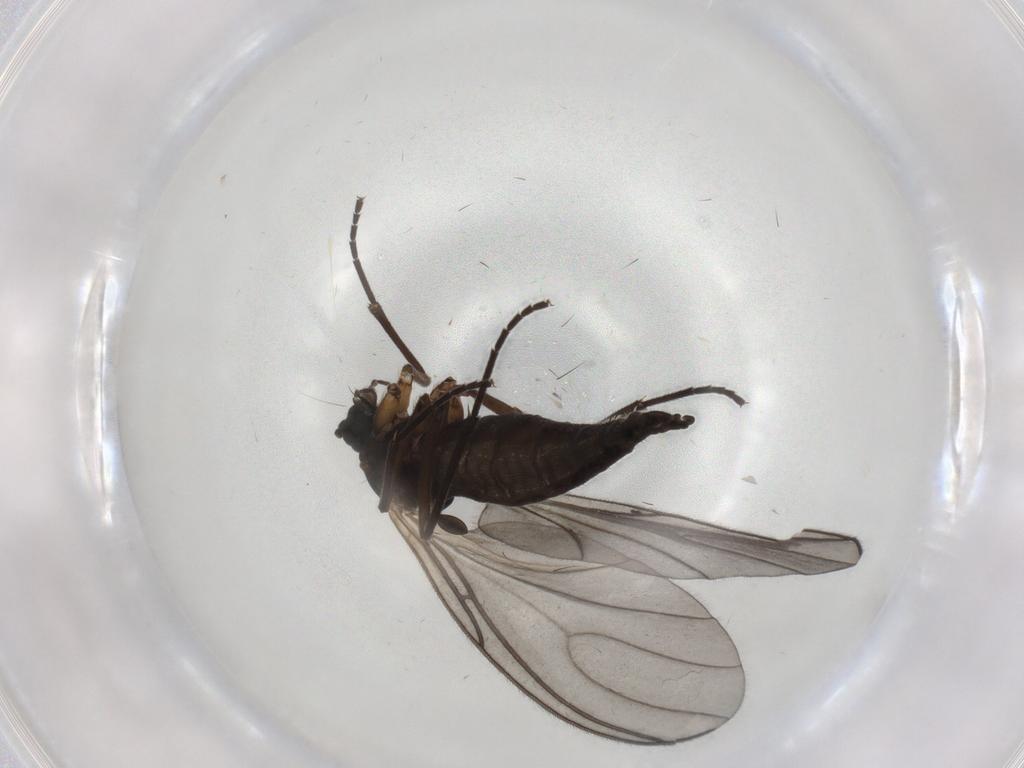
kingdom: Animalia
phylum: Arthropoda
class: Insecta
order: Diptera
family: Sciaridae
